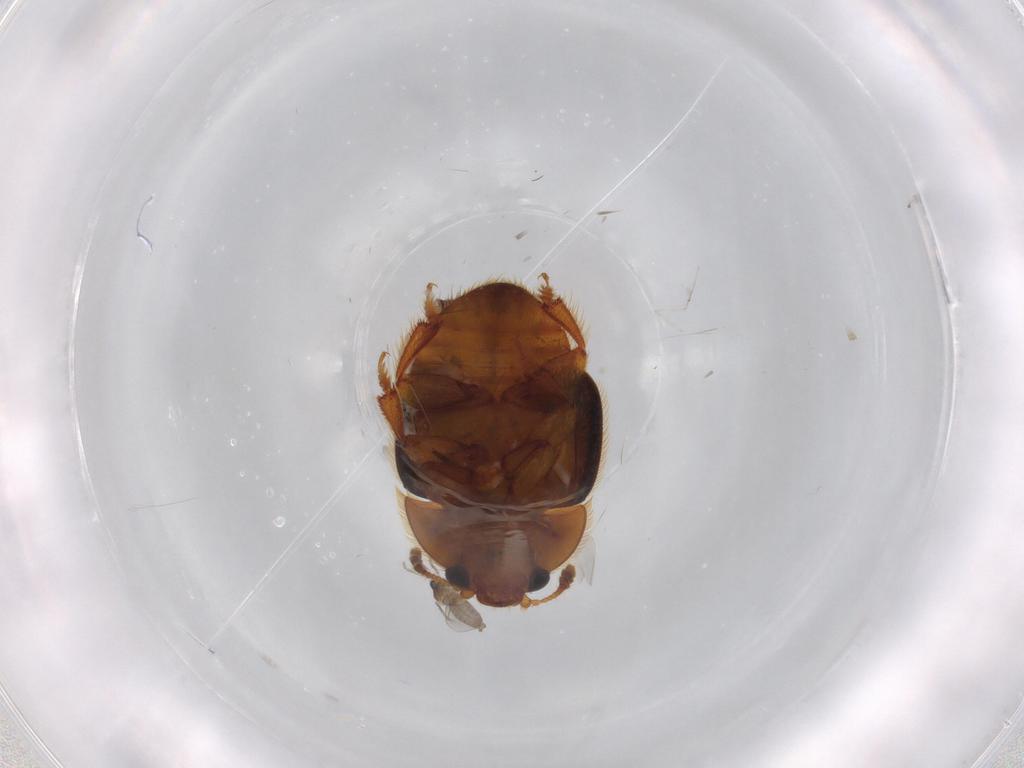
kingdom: Animalia
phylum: Arthropoda
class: Insecta
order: Coleoptera
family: Nitidulidae
